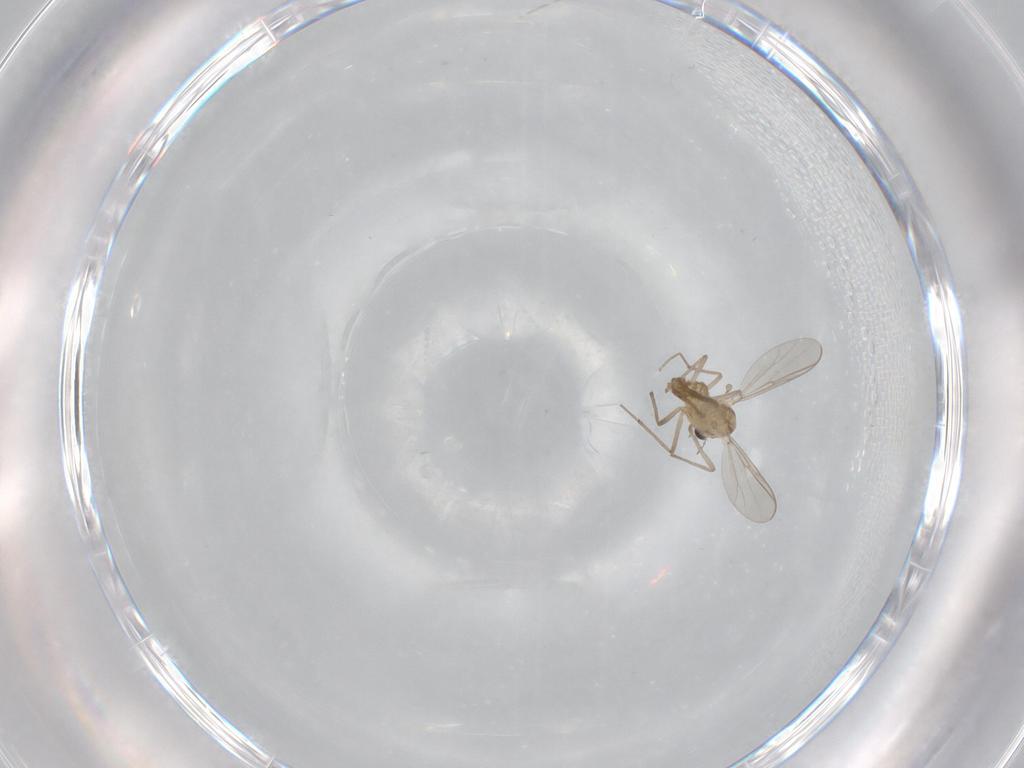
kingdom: Animalia
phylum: Arthropoda
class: Insecta
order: Diptera
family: Chironomidae
